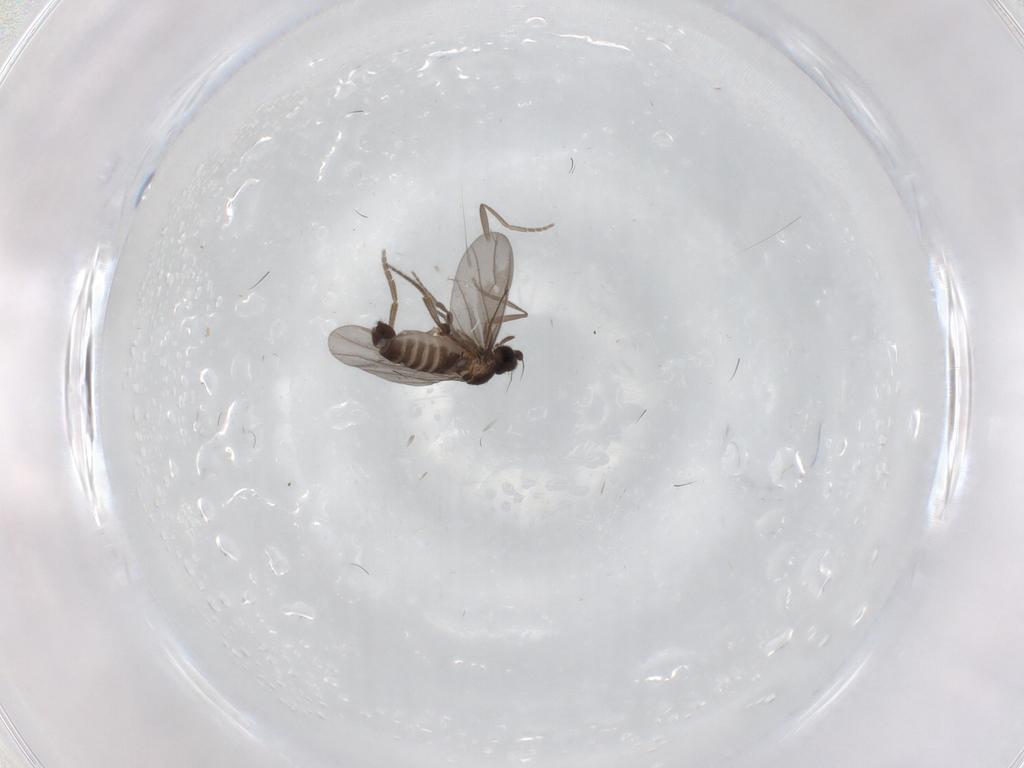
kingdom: Animalia
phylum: Arthropoda
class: Insecta
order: Diptera
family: Phoridae
